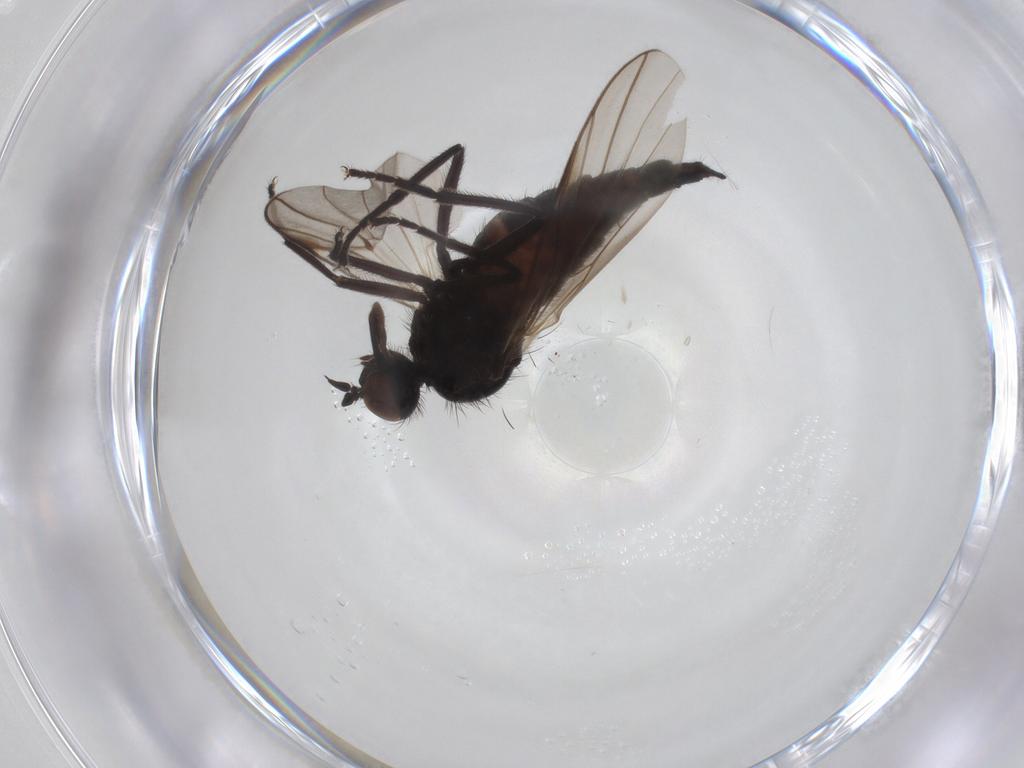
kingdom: Animalia
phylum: Arthropoda
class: Insecta
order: Diptera
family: Empididae
